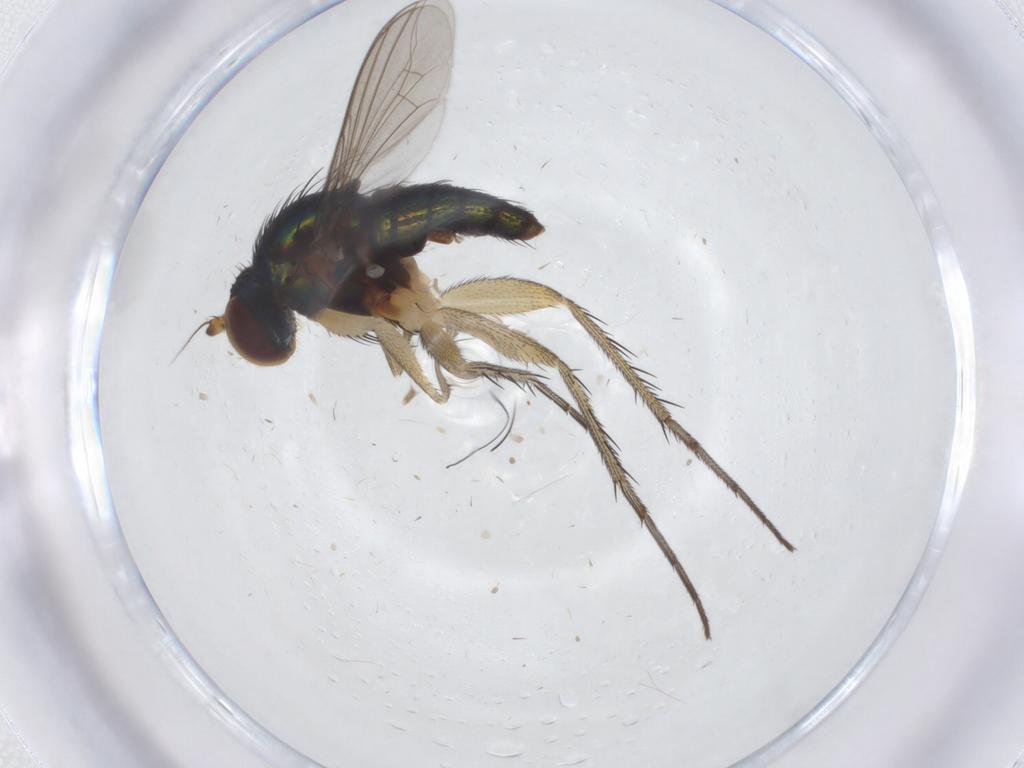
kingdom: Animalia
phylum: Arthropoda
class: Insecta
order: Diptera
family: Dolichopodidae
